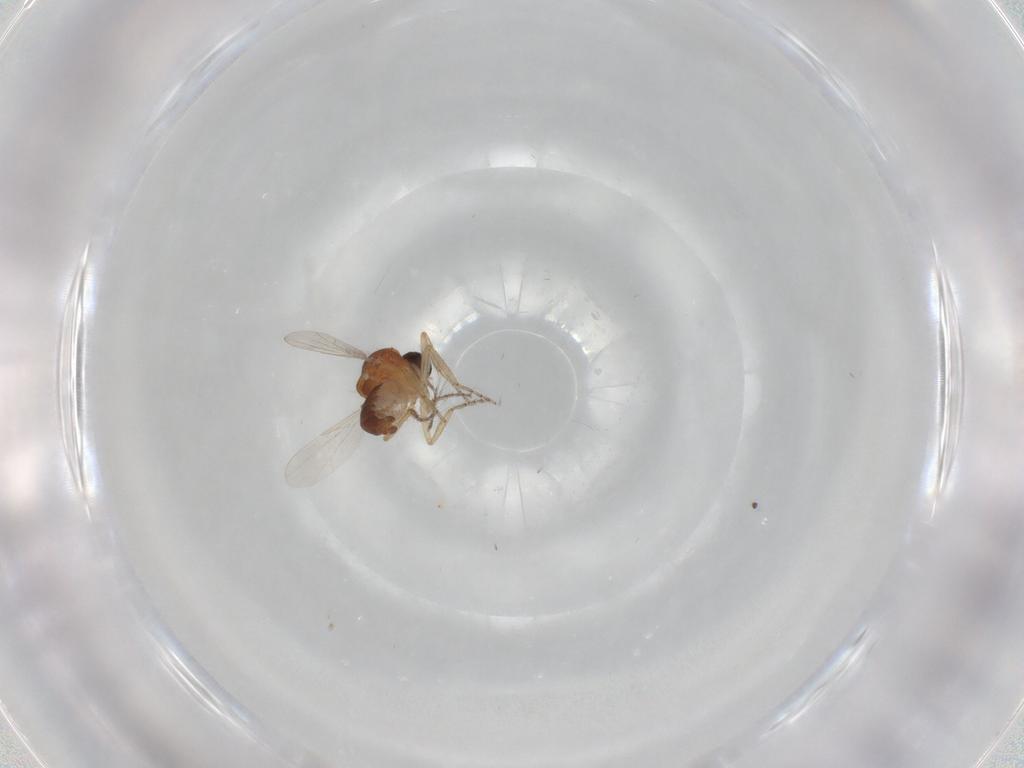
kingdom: Animalia
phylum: Arthropoda
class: Insecta
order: Diptera
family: Ceratopogonidae
